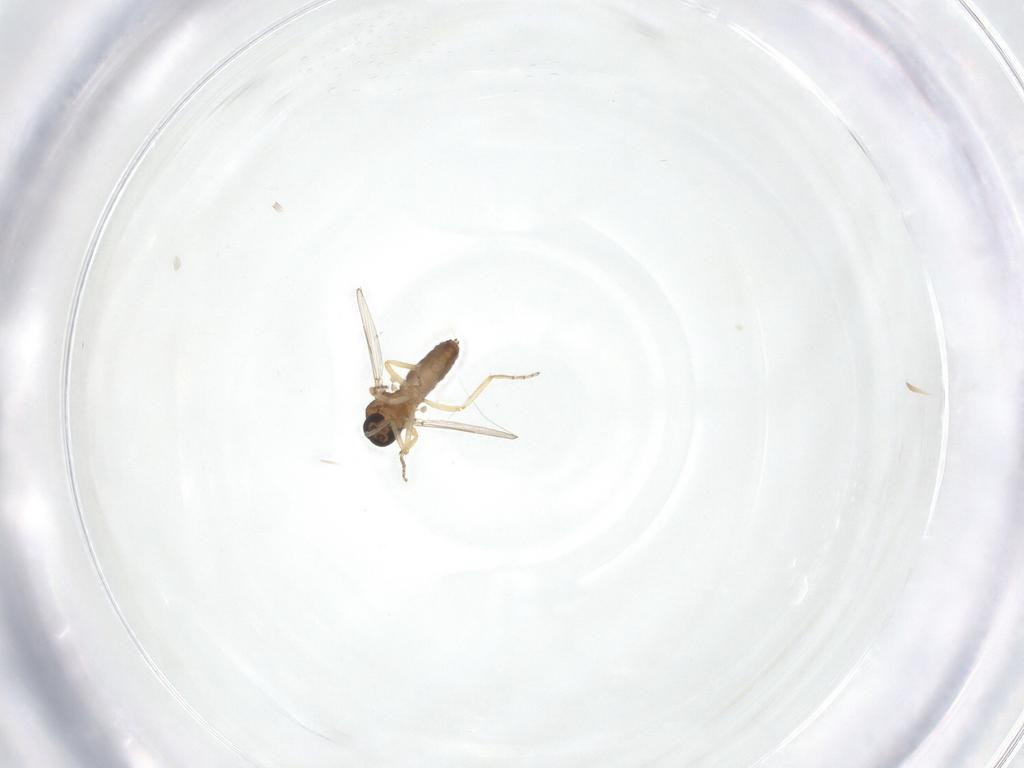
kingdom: Animalia
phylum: Arthropoda
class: Insecta
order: Diptera
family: Ceratopogonidae
